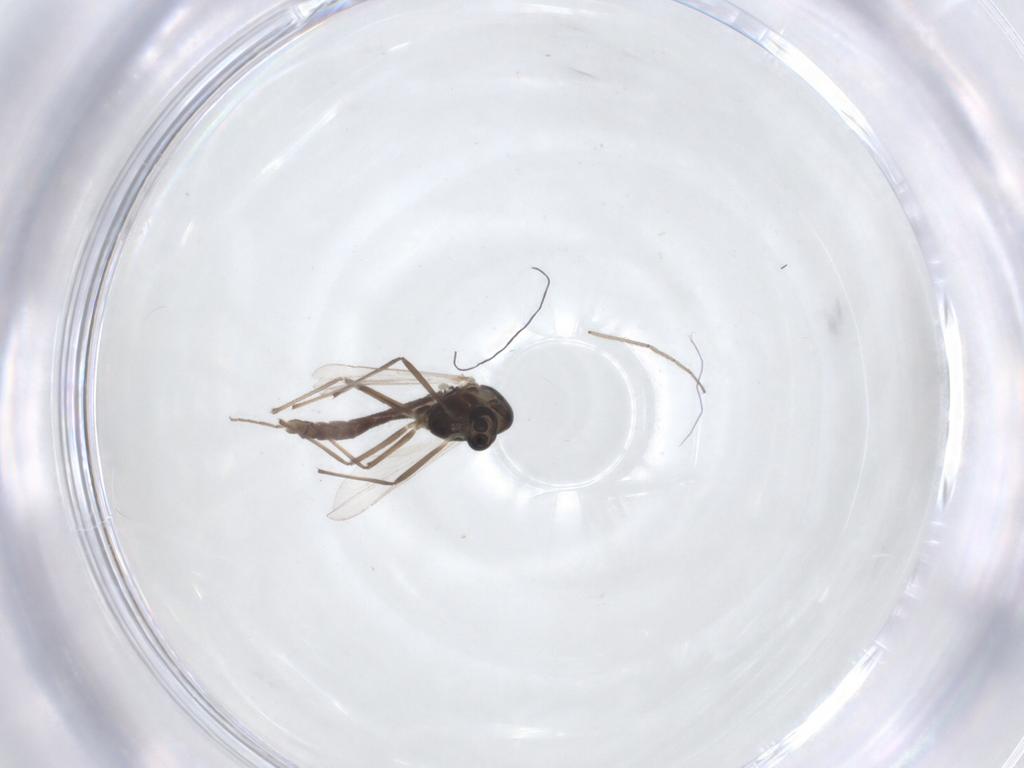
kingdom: Animalia
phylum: Arthropoda
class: Insecta
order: Diptera
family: Chironomidae
